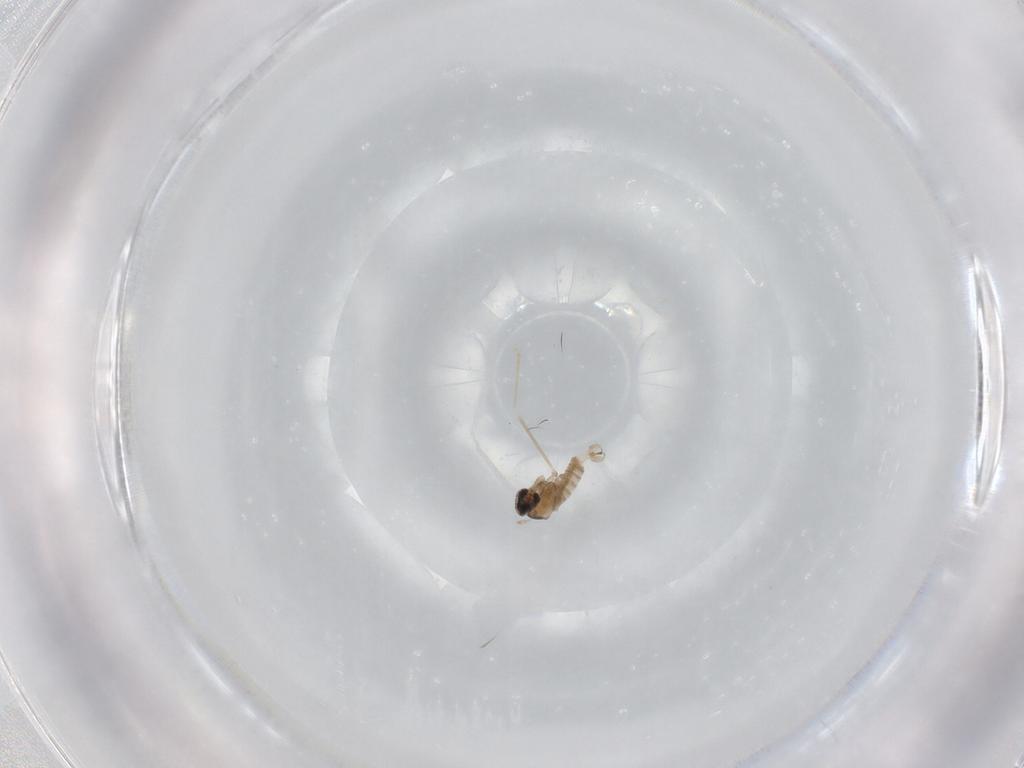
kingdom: Animalia
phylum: Arthropoda
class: Insecta
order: Diptera
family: Cecidomyiidae
